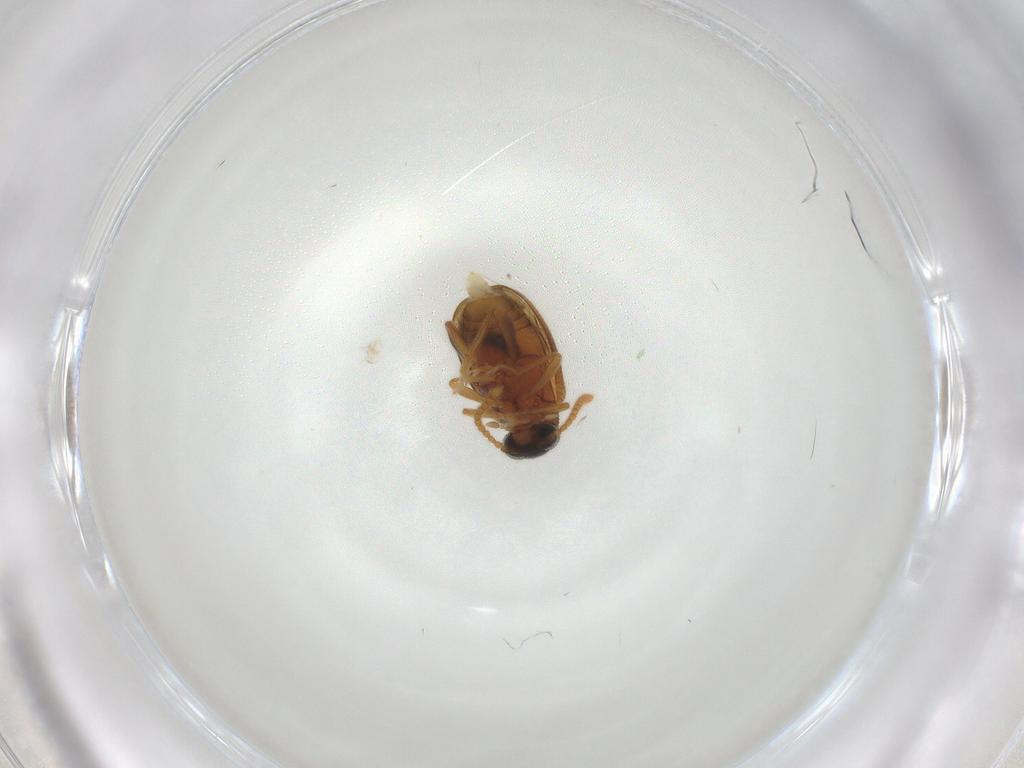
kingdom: Animalia
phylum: Arthropoda
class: Insecta
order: Coleoptera
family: Aderidae
